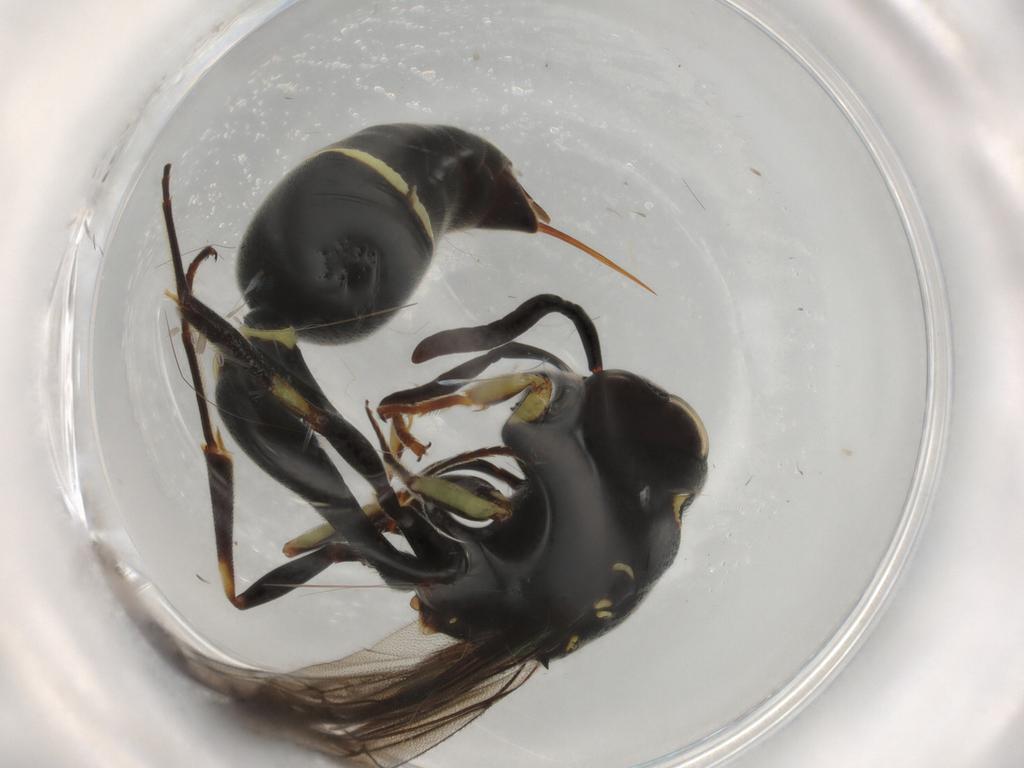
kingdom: Animalia
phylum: Arthropoda
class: Insecta
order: Hymenoptera
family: Vespidae
